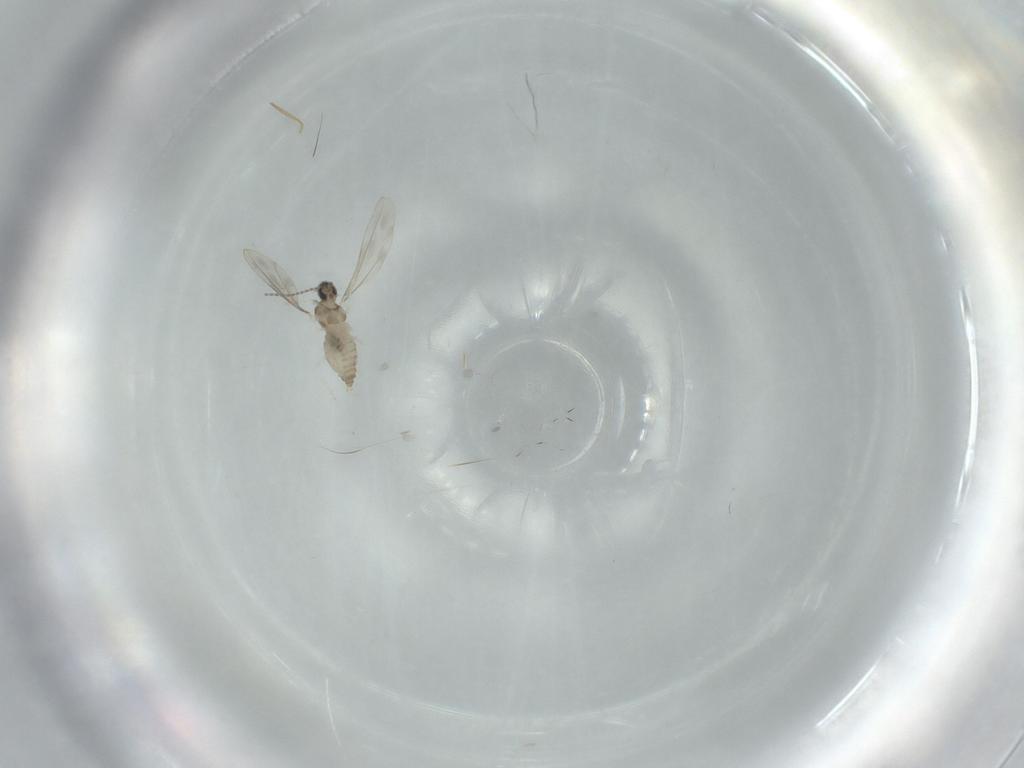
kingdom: Animalia
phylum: Arthropoda
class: Insecta
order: Diptera
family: Cecidomyiidae
